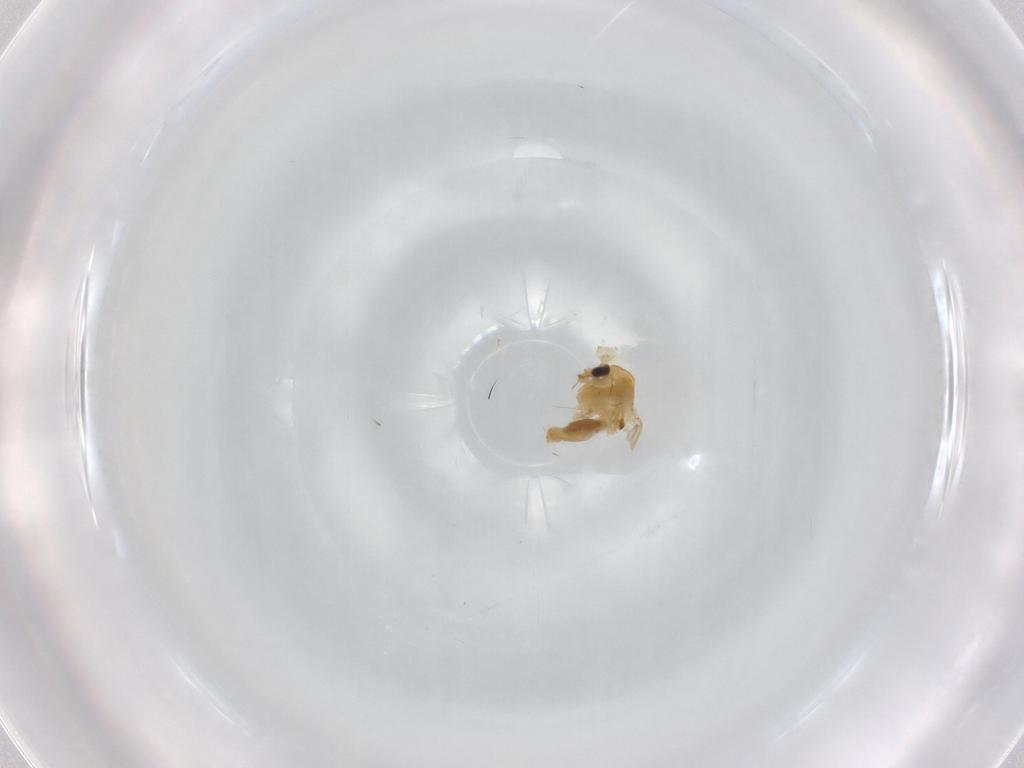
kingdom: Animalia
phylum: Arthropoda
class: Insecta
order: Diptera
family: Glossinidae
